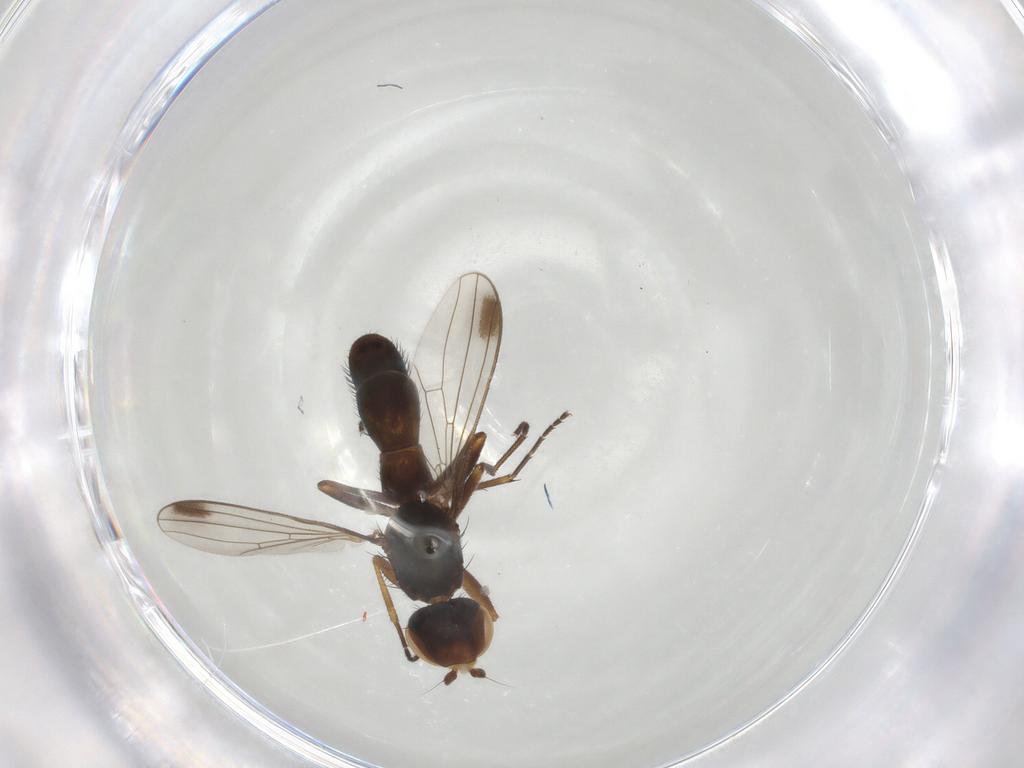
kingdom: Animalia
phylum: Arthropoda
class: Insecta
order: Diptera
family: Sepsidae
